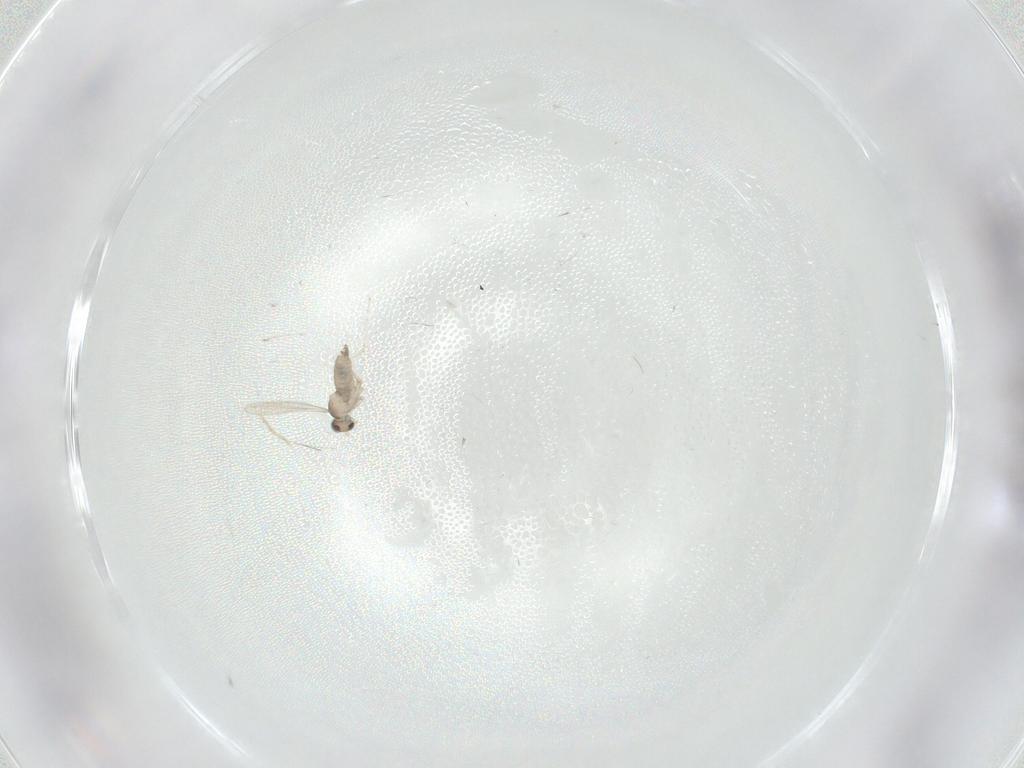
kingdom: Animalia
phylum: Arthropoda
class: Insecta
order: Diptera
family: Cecidomyiidae
